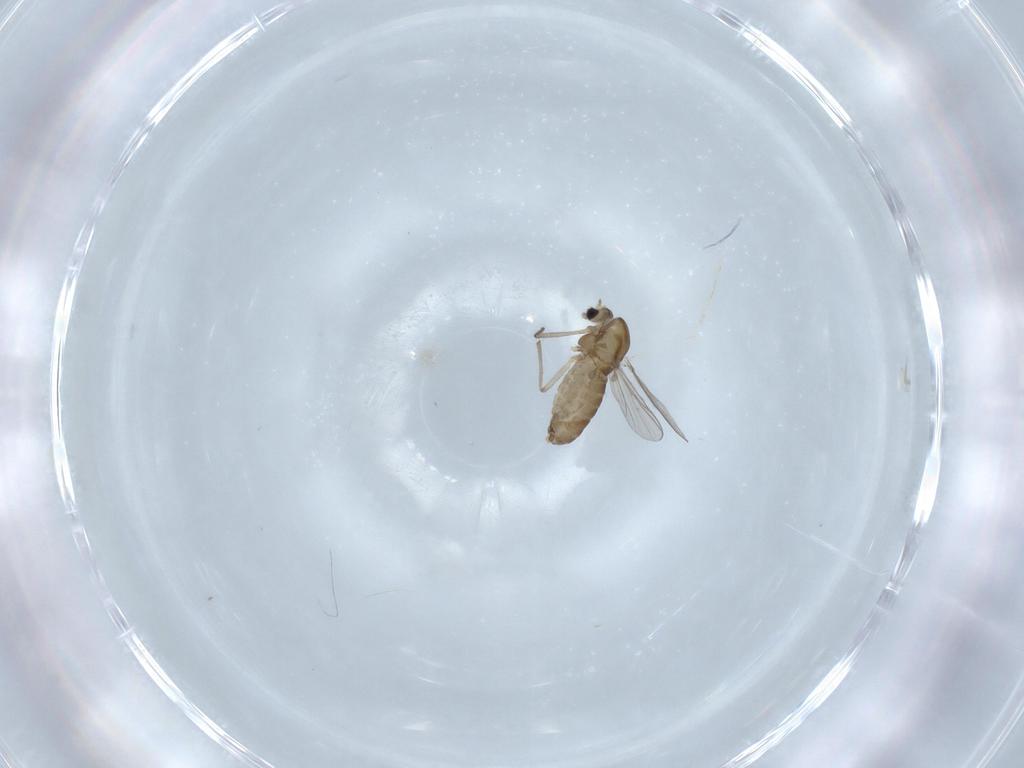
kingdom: Animalia
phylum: Arthropoda
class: Insecta
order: Diptera
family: Chironomidae
